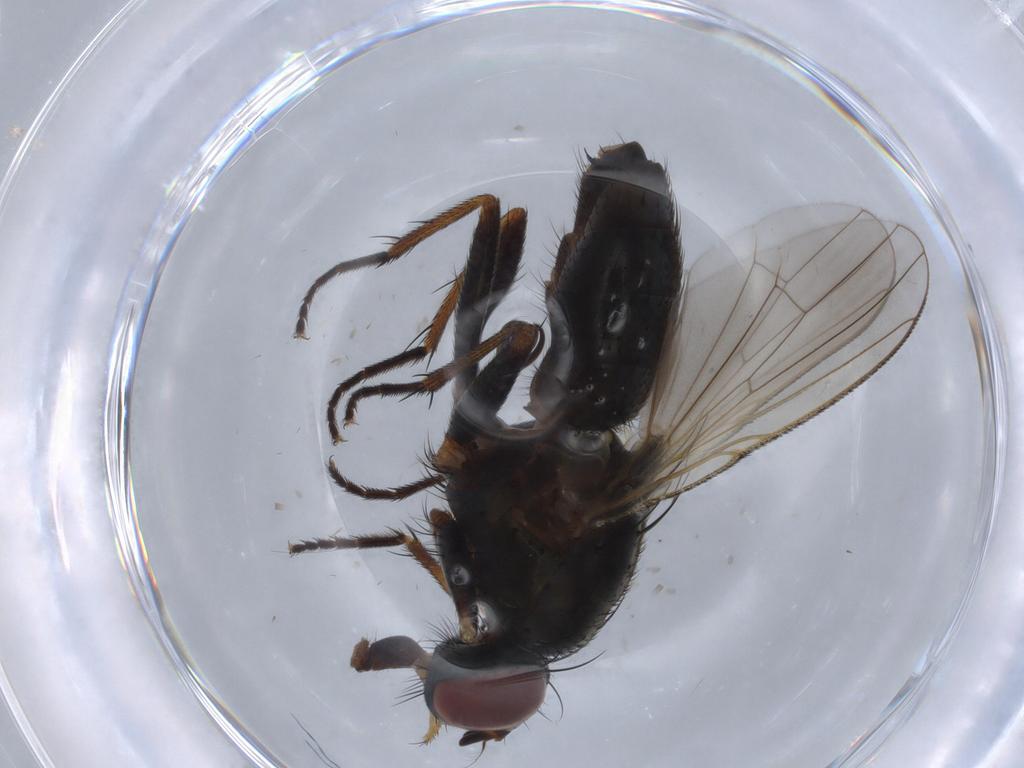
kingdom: Animalia
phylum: Arthropoda
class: Insecta
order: Diptera
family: Muscidae
